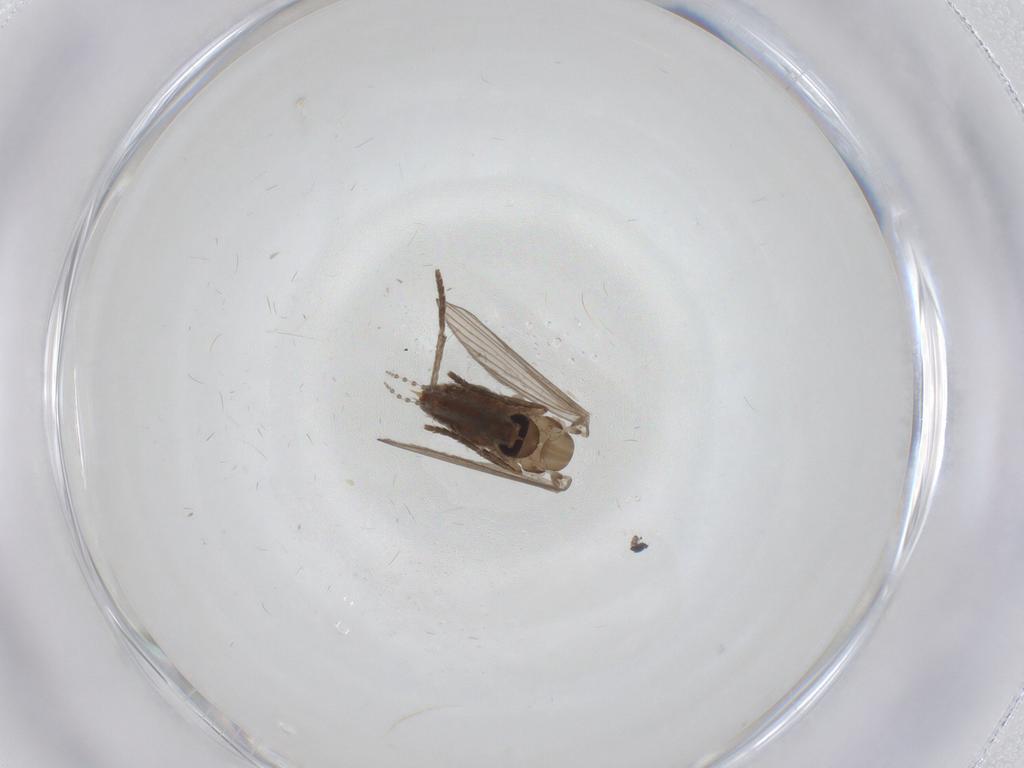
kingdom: Animalia
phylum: Arthropoda
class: Insecta
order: Diptera
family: Psychodidae
